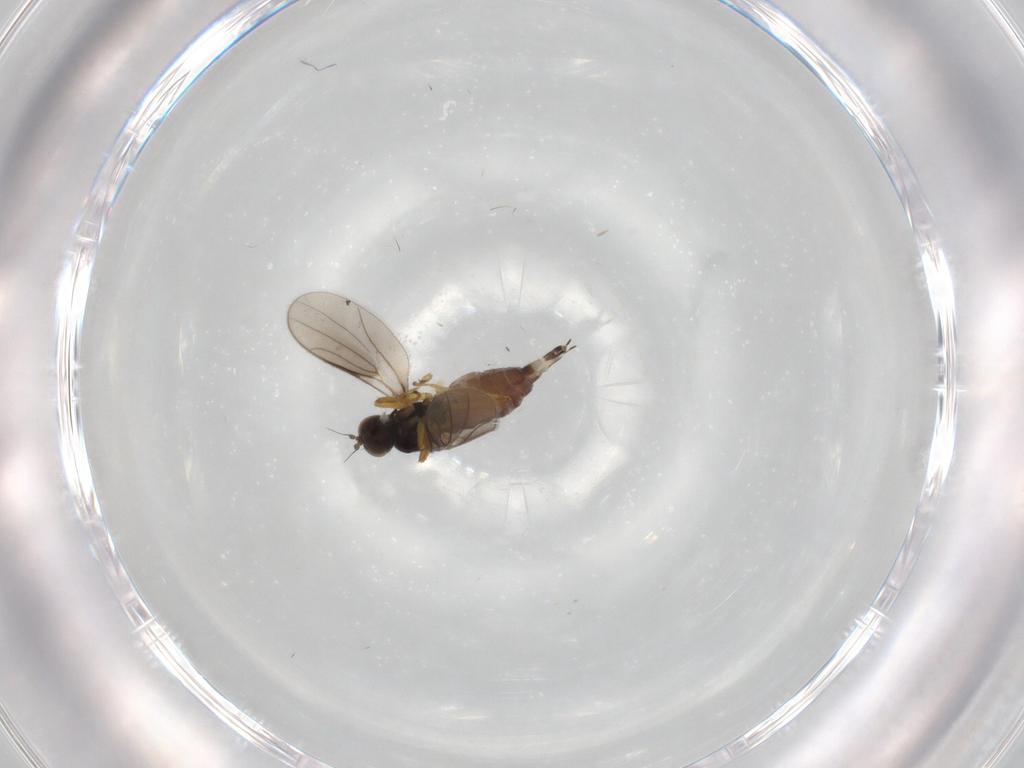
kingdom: Animalia
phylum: Arthropoda
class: Insecta
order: Diptera
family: Hybotidae
